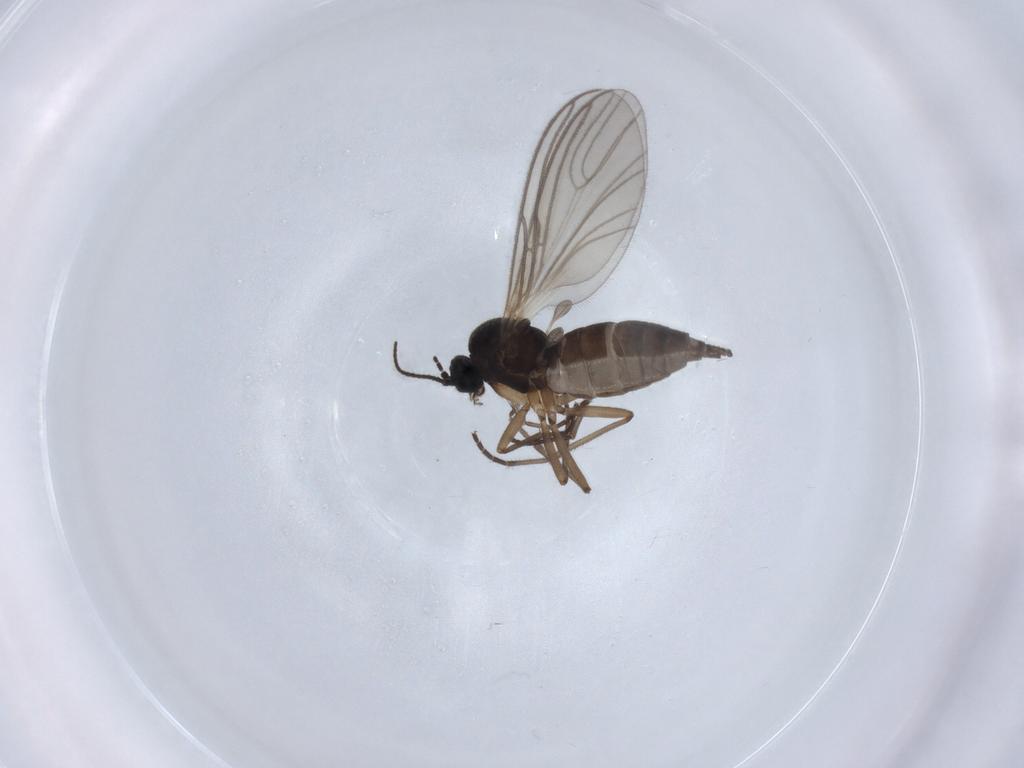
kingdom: Animalia
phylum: Arthropoda
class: Insecta
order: Diptera
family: Sciaridae
